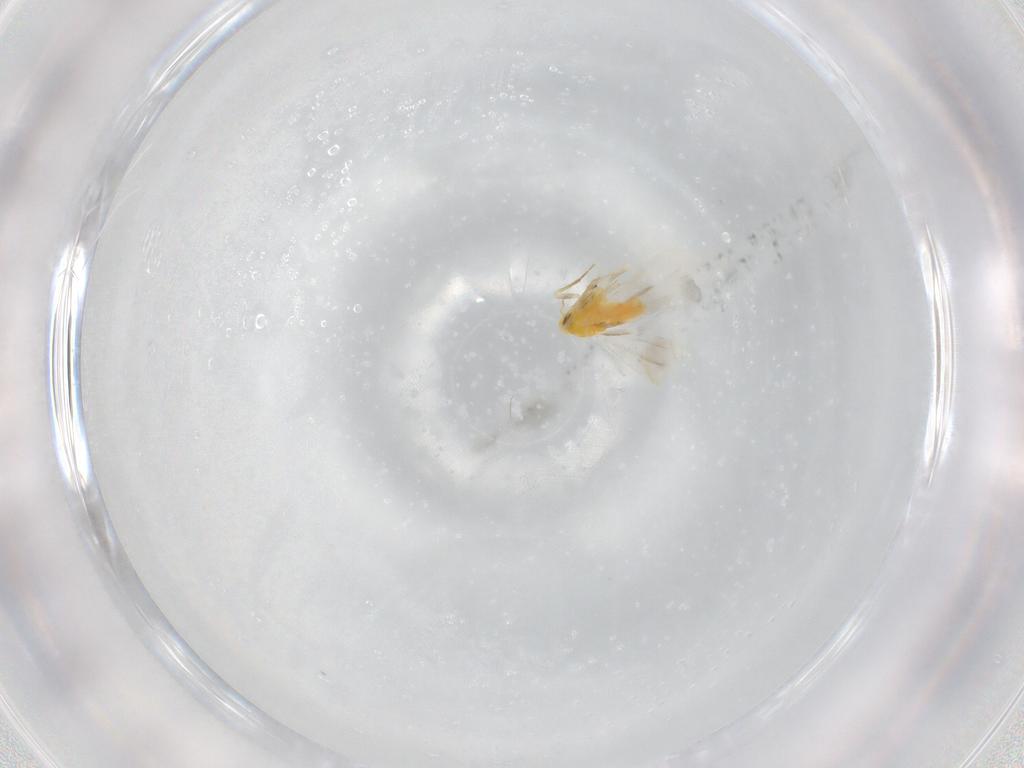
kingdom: Animalia
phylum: Arthropoda
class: Insecta
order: Hemiptera
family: Aleyrodidae
